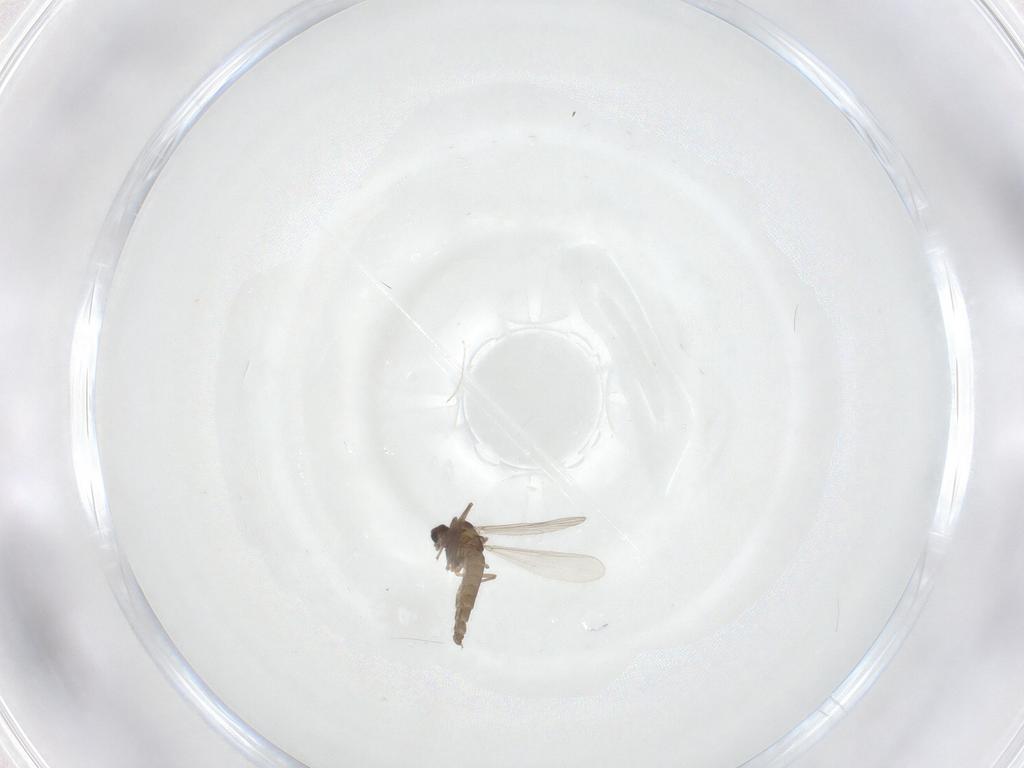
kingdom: Animalia
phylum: Arthropoda
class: Insecta
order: Diptera
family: Chironomidae
